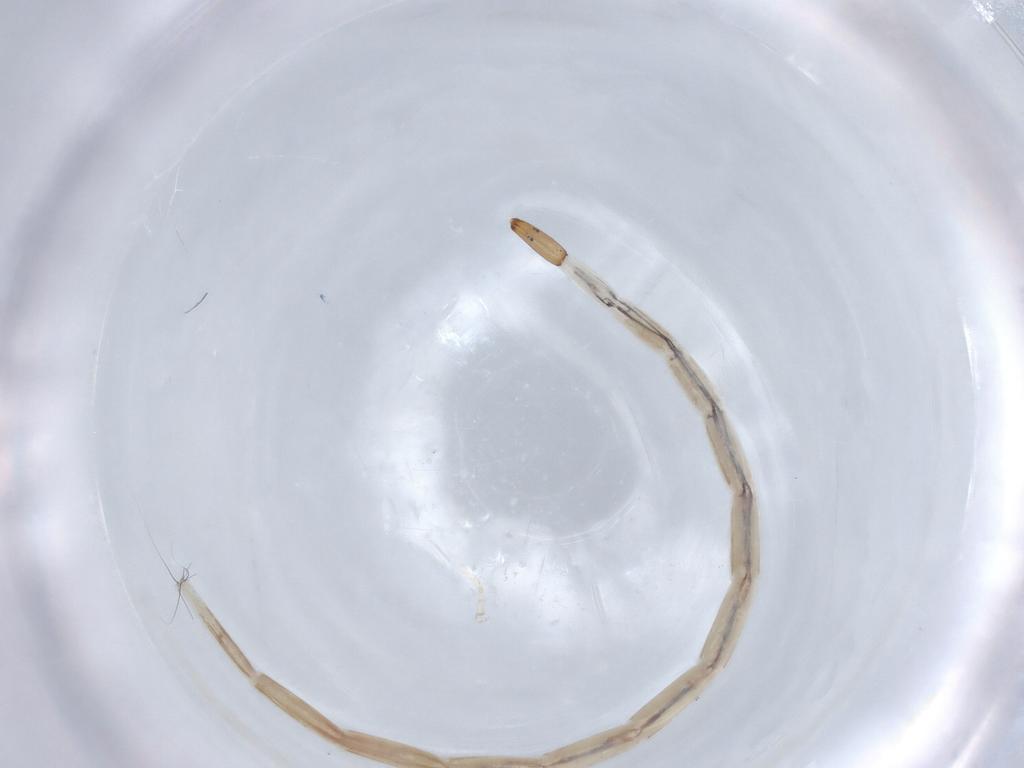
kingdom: Animalia
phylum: Arthropoda
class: Insecta
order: Diptera
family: Ceratopogonidae
